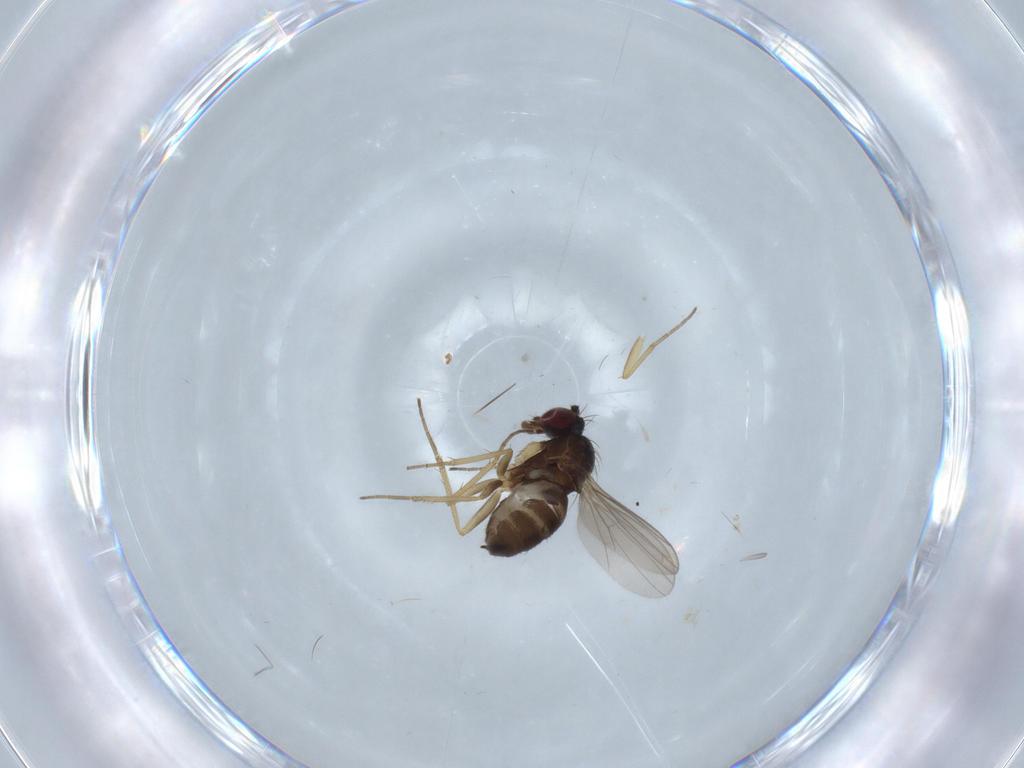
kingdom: Animalia
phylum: Arthropoda
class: Insecta
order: Diptera
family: Dolichopodidae
